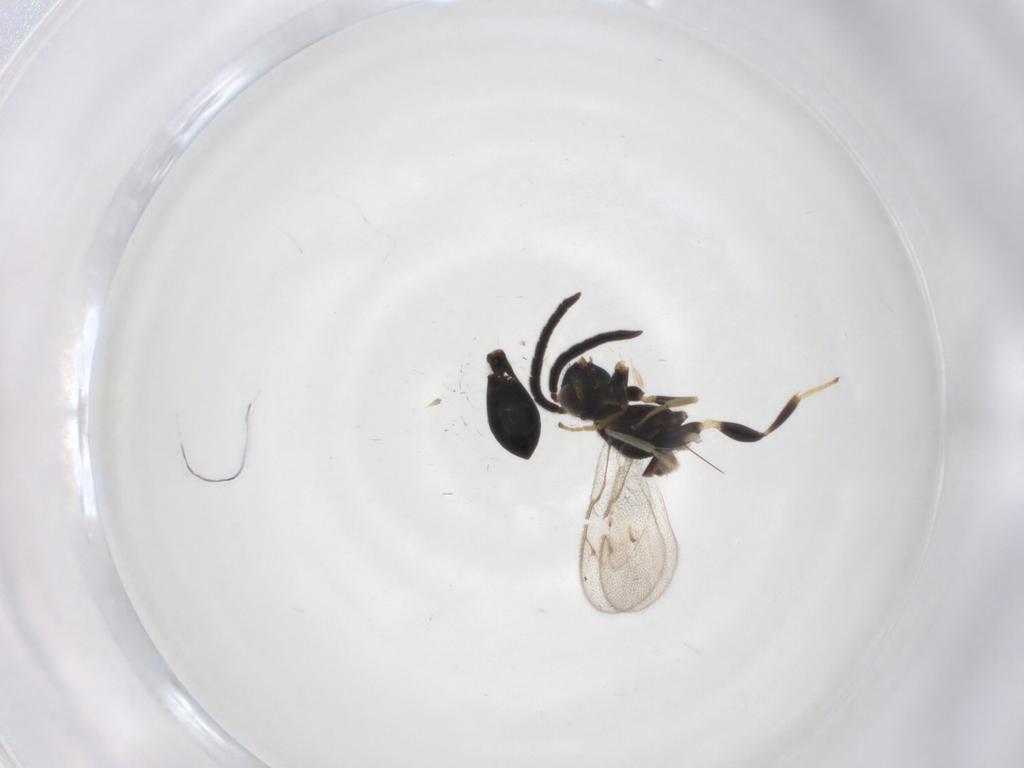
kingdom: Animalia
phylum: Arthropoda
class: Insecta
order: Hymenoptera
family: Eupelmidae
